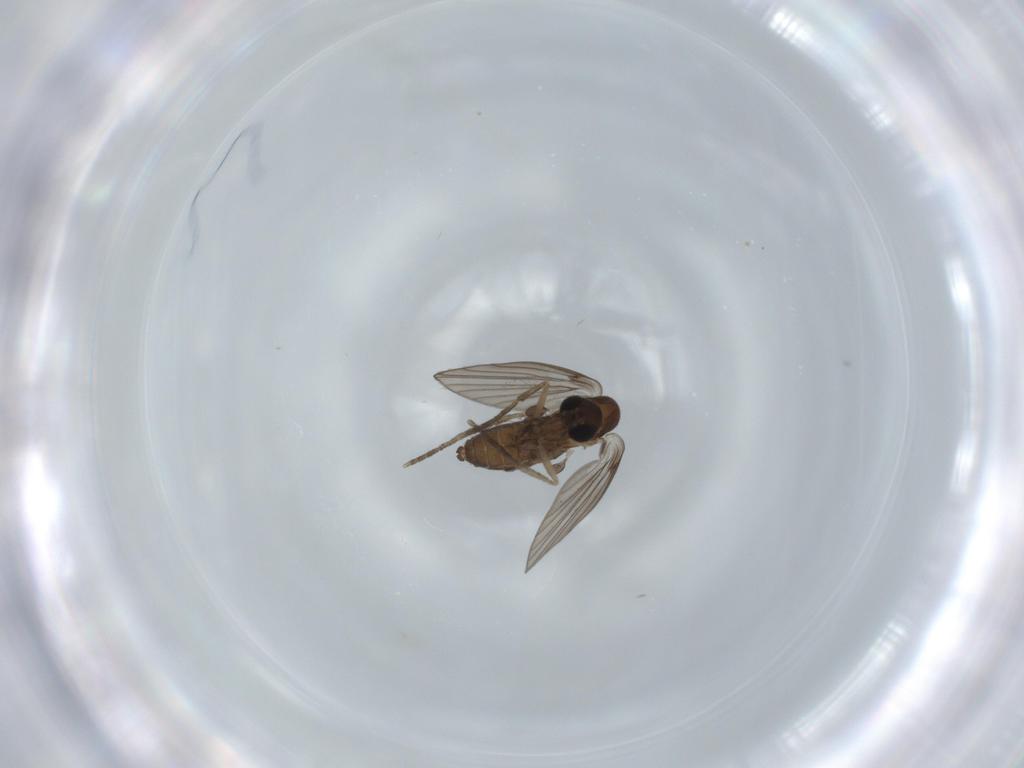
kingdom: Animalia
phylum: Arthropoda
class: Insecta
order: Diptera
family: Psychodidae
